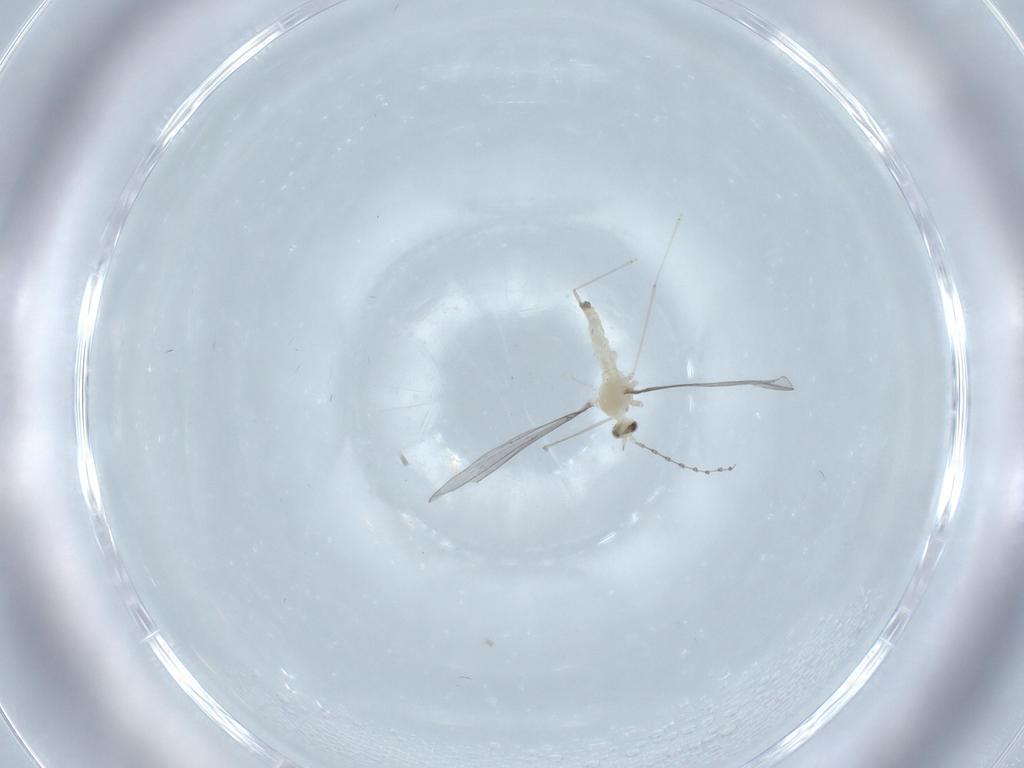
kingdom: Animalia
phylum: Arthropoda
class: Insecta
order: Diptera
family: Cecidomyiidae
